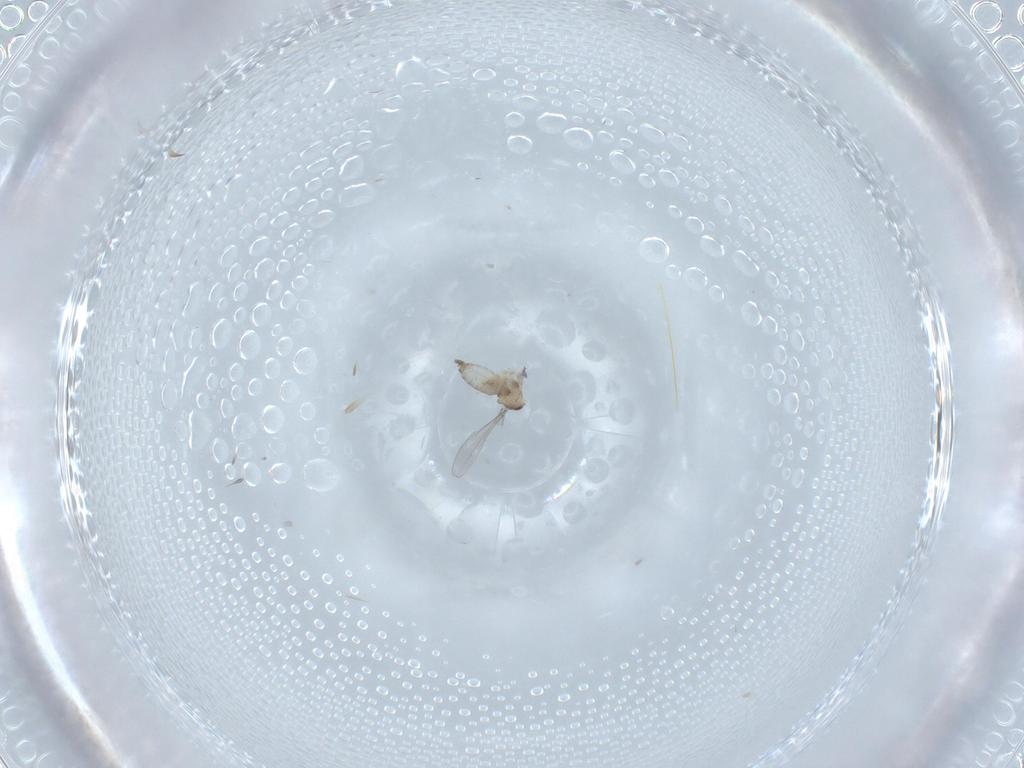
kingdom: Animalia
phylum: Arthropoda
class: Insecta
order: Diptera
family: Cecidomyiidae
